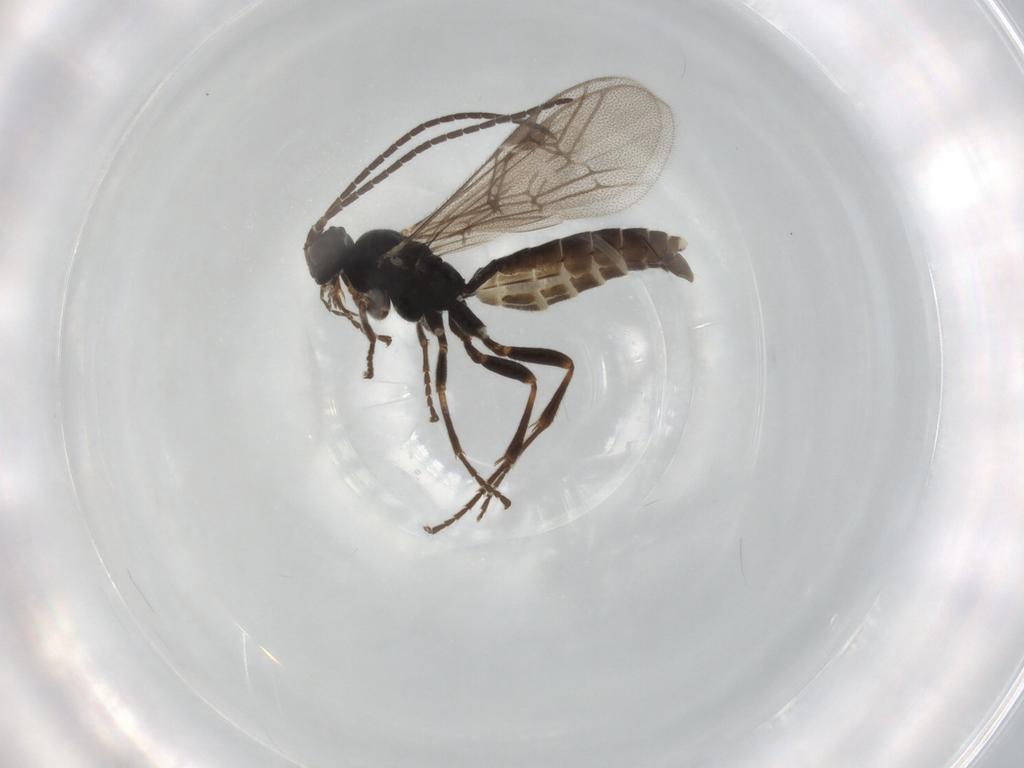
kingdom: Animalia
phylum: Arthropoda
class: Insecta
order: Hymenoptera
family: Ichneumonidae
